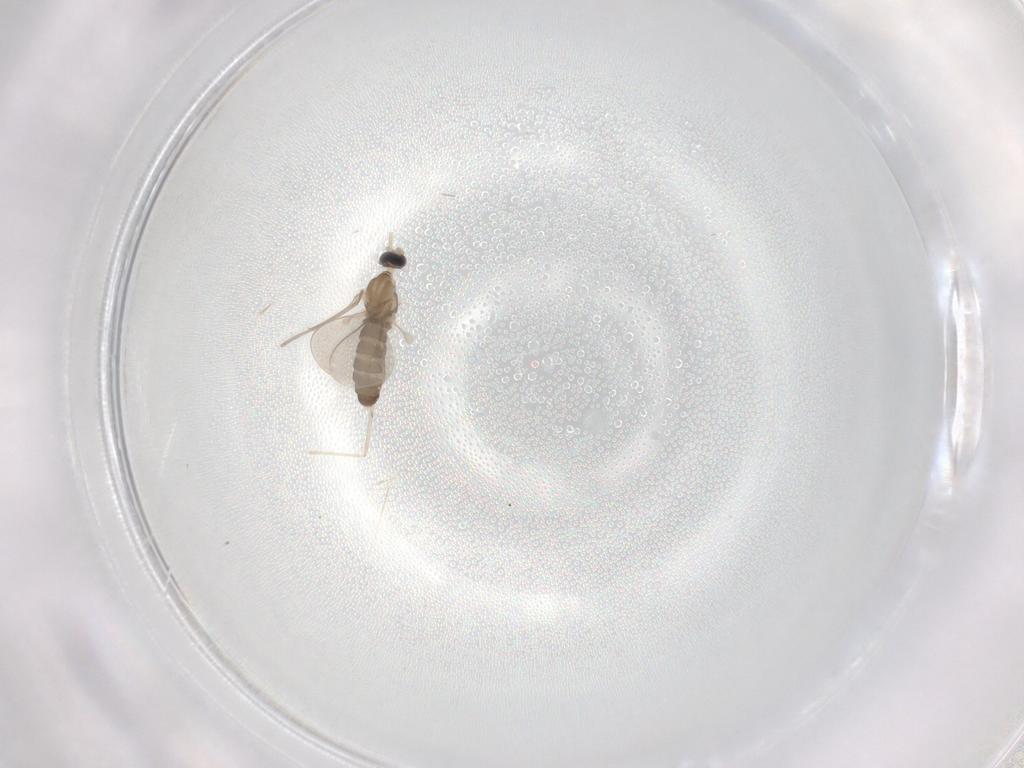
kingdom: Animalia
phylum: Arthropoda
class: Insecta
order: Diptera
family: Cecidomyiidae
